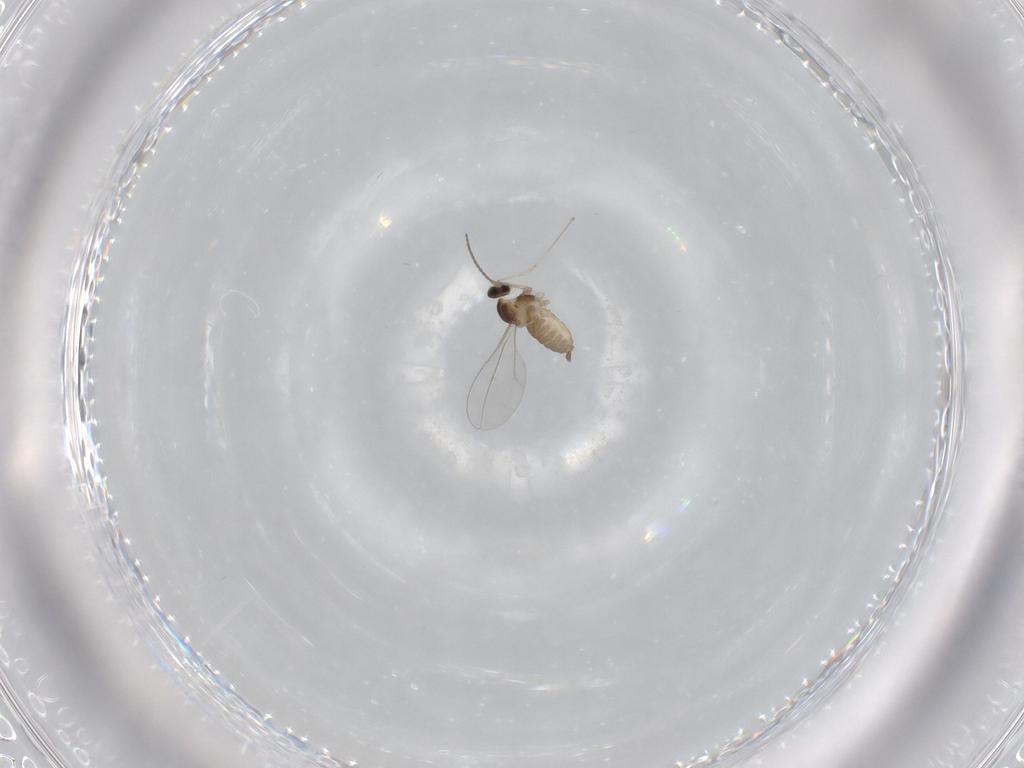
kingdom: Animalia
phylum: Arthropoda
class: Insecta
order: Diptera
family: Cecidomyiidae
